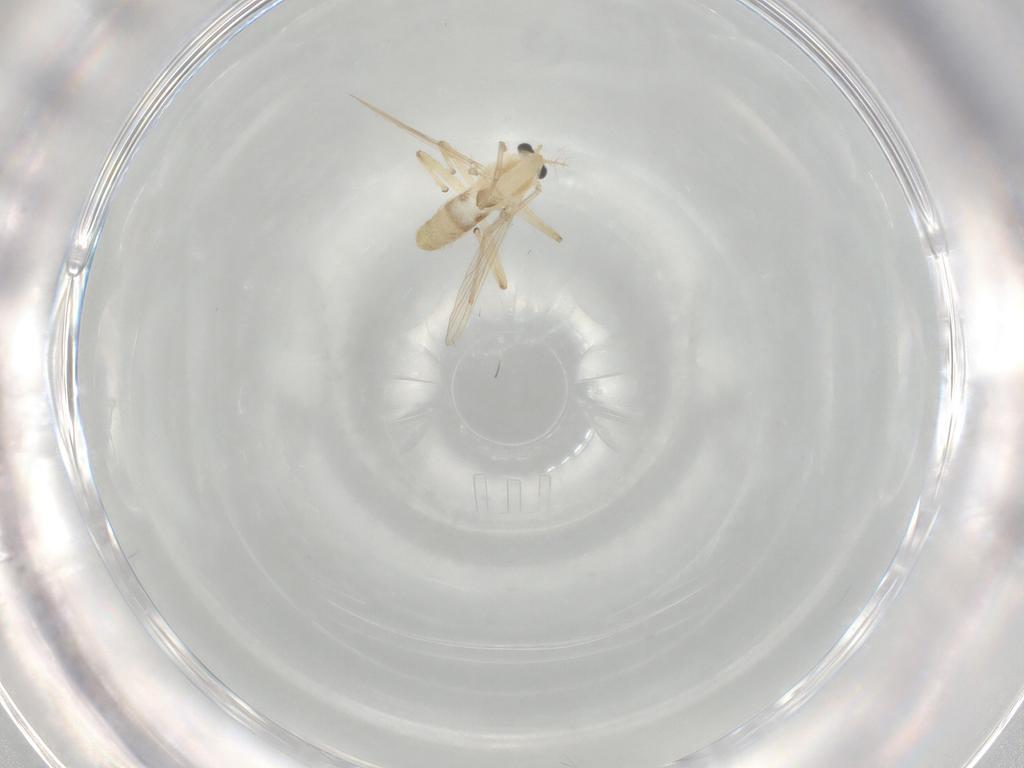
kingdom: Animalia
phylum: Arthropoda
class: Insecta
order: Diptera
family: Chironomidae
